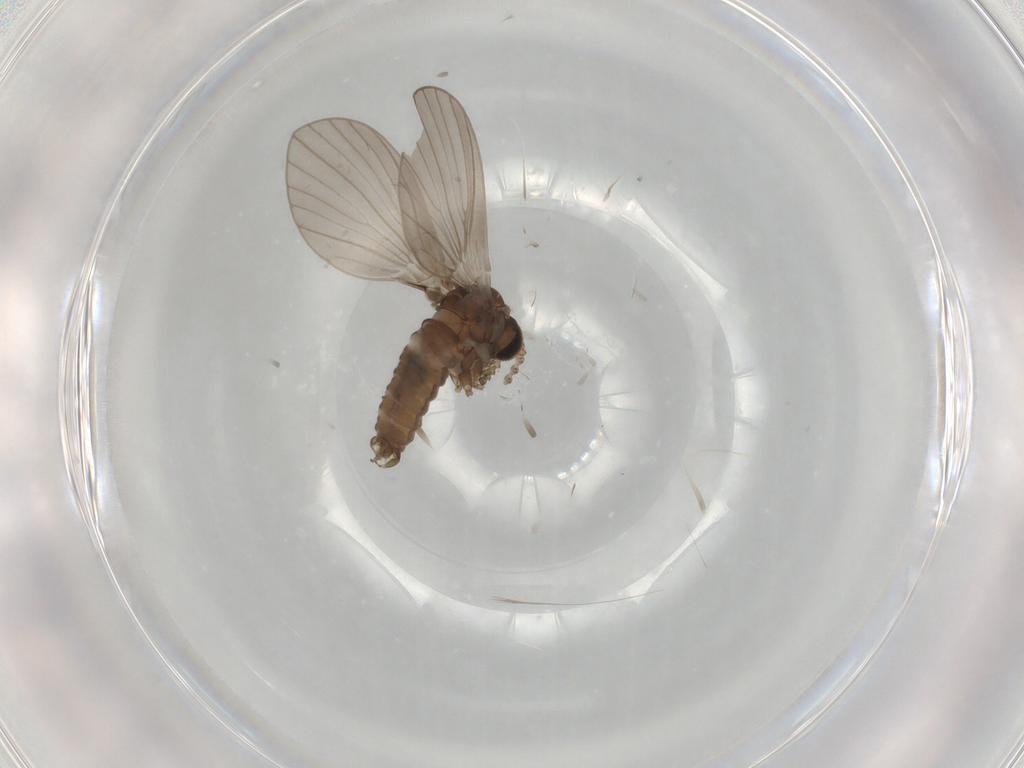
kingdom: Animalia
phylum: Arthropoda
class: Insecta
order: Diptera
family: Psychodidae
